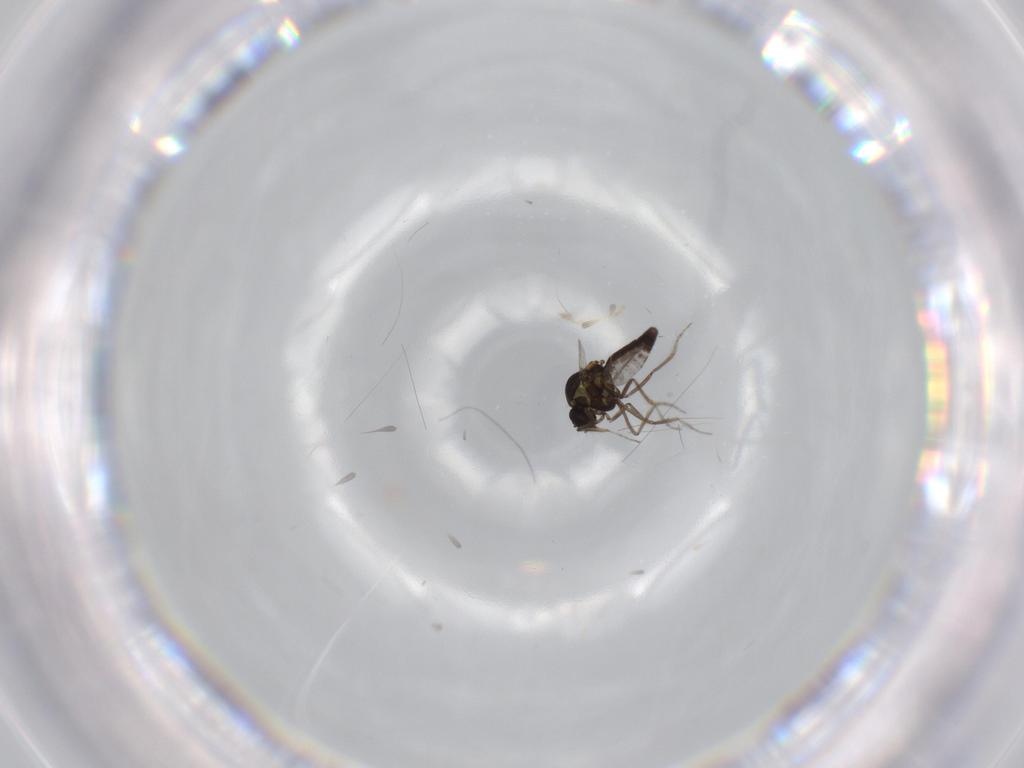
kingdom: Animalia
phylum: Arthropoda
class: Insecta
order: Diptera
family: Ceratopogonidae
